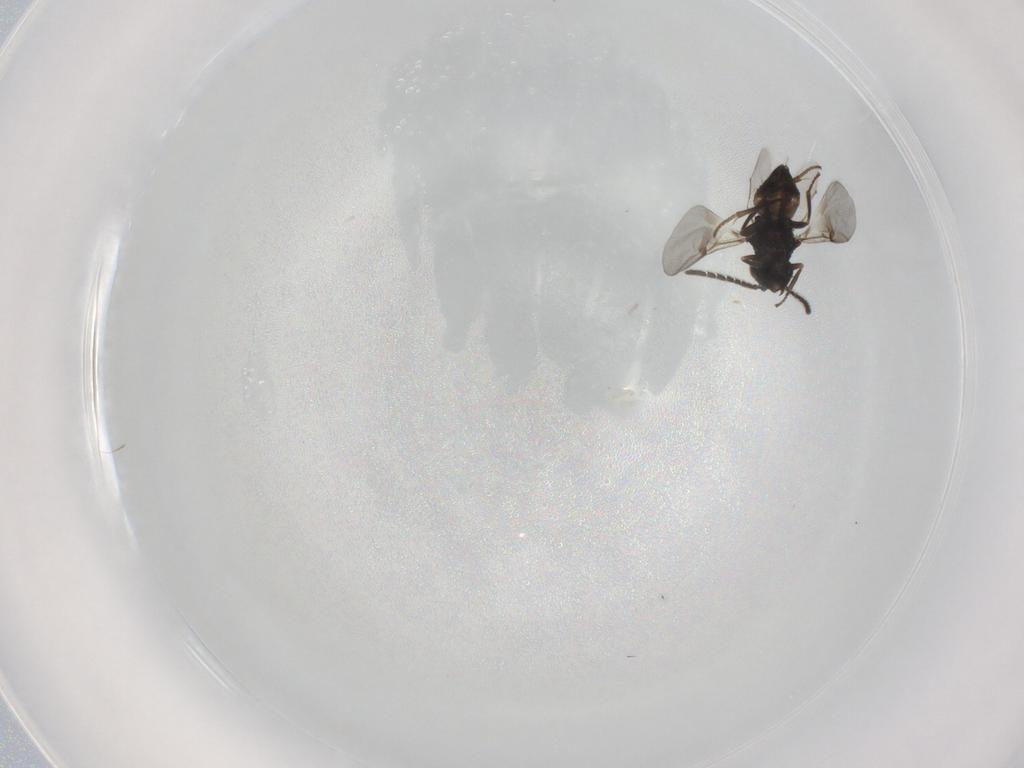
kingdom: Animalia
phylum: Arthropoda
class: Insecta
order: Hymenoptera
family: Encyrtidae
